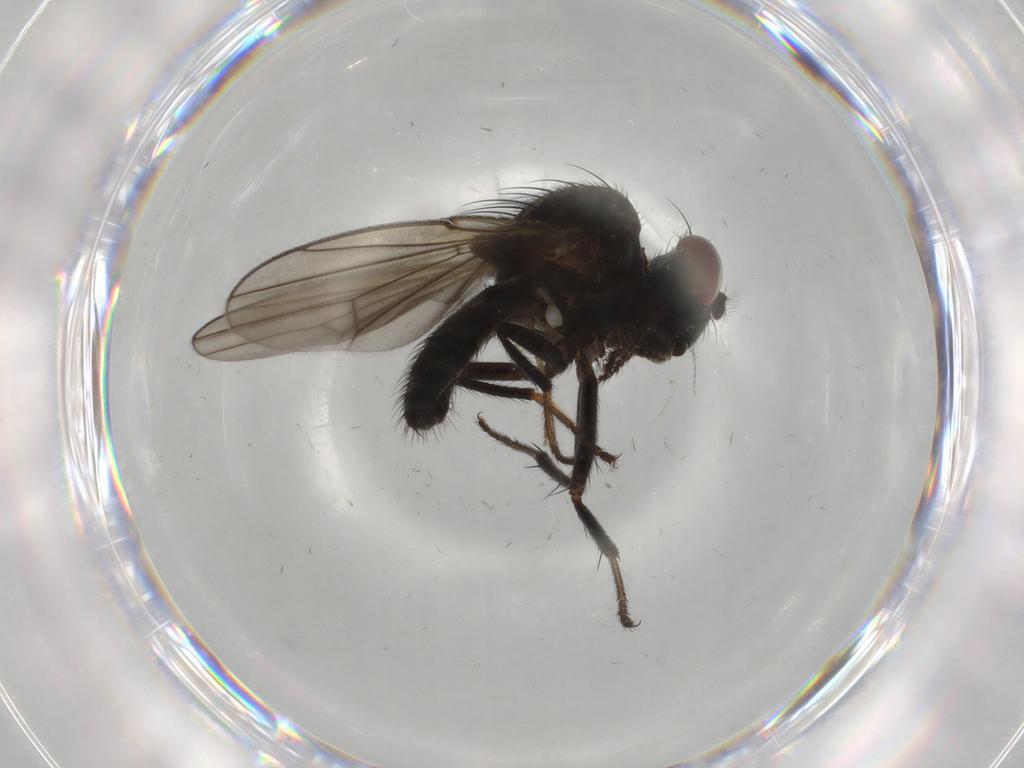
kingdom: Animalia
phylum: Arthropoda
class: Insecta
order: Diptera
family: Ephydridae
